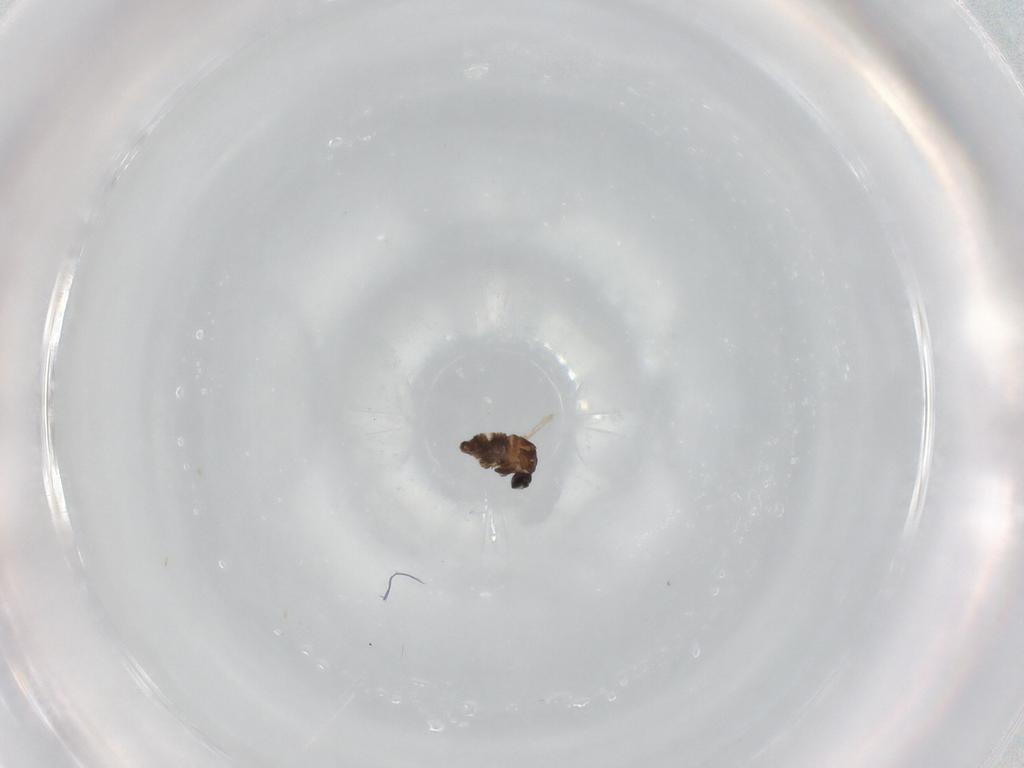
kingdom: Animalia
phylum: Arthropoda
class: Insecta
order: Diptera
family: Cecidomyiidae
